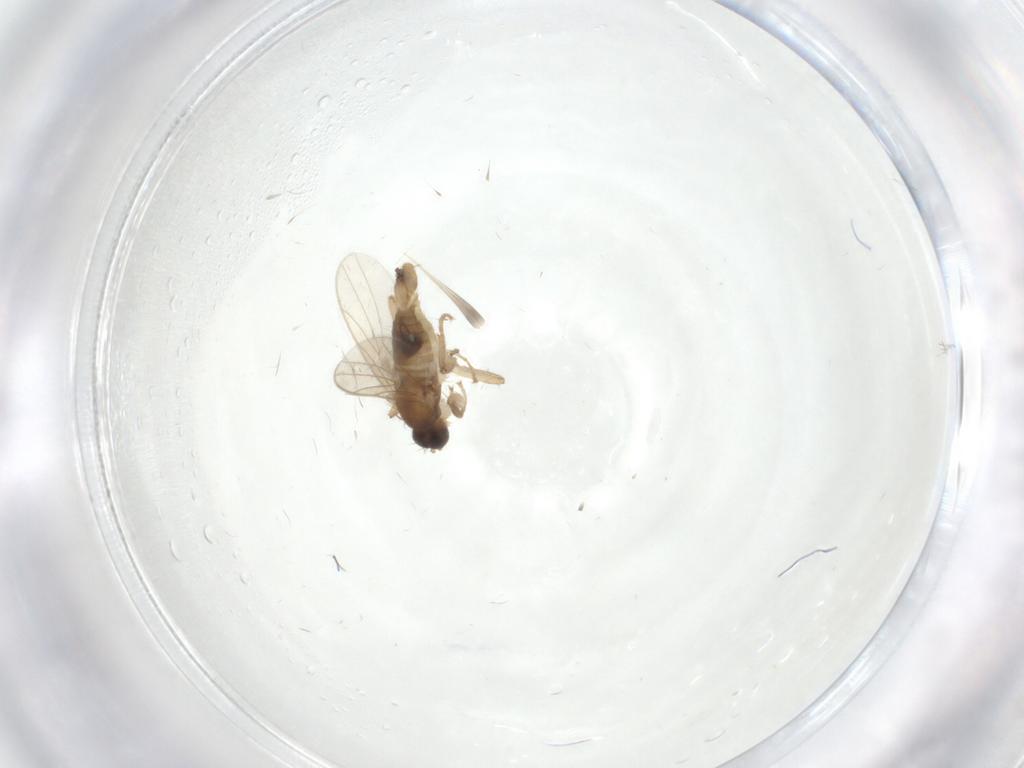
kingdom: Animalia
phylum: Arthropoda
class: Insecta
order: Diptera
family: Hybotidae
